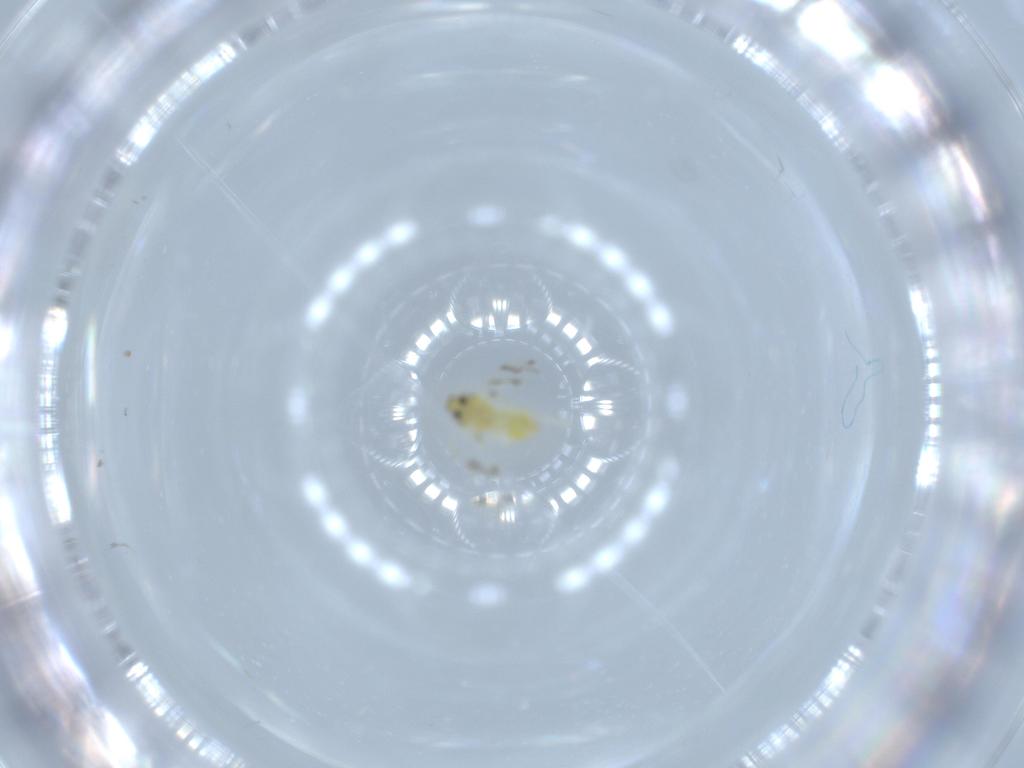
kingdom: Animalia
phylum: Arthropoda
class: Insecta
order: Hemiptera
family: Aleyrodidae
